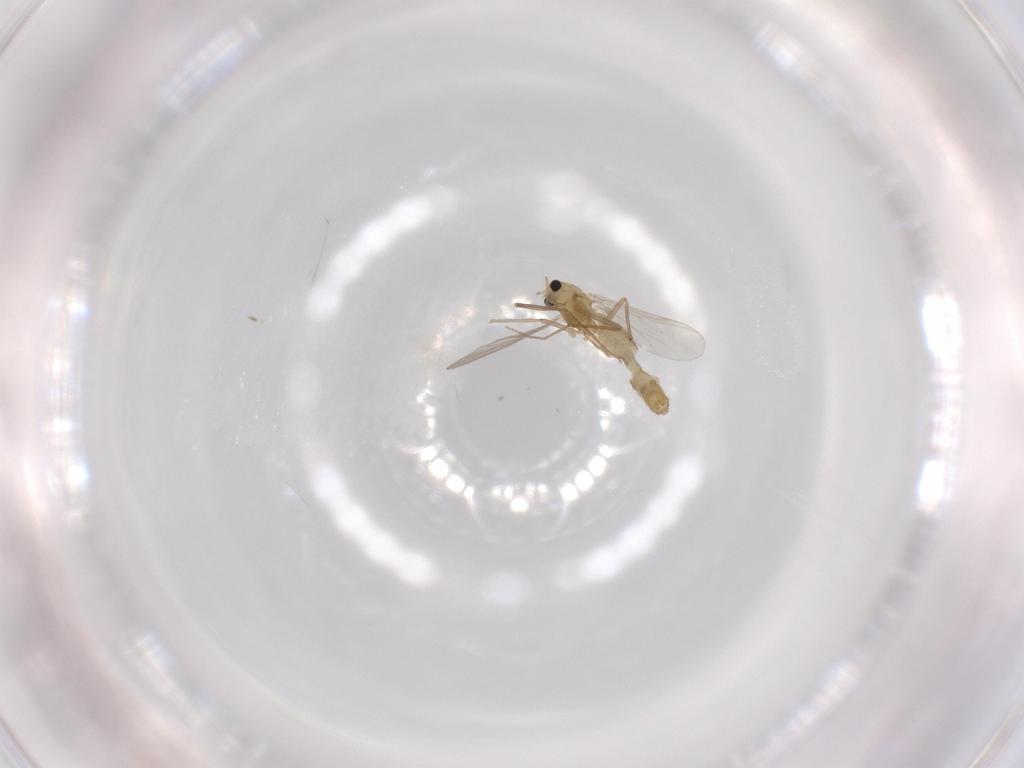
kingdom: Animalia
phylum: Arthropoda
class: Insecta
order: Diptera
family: Chironomidae
